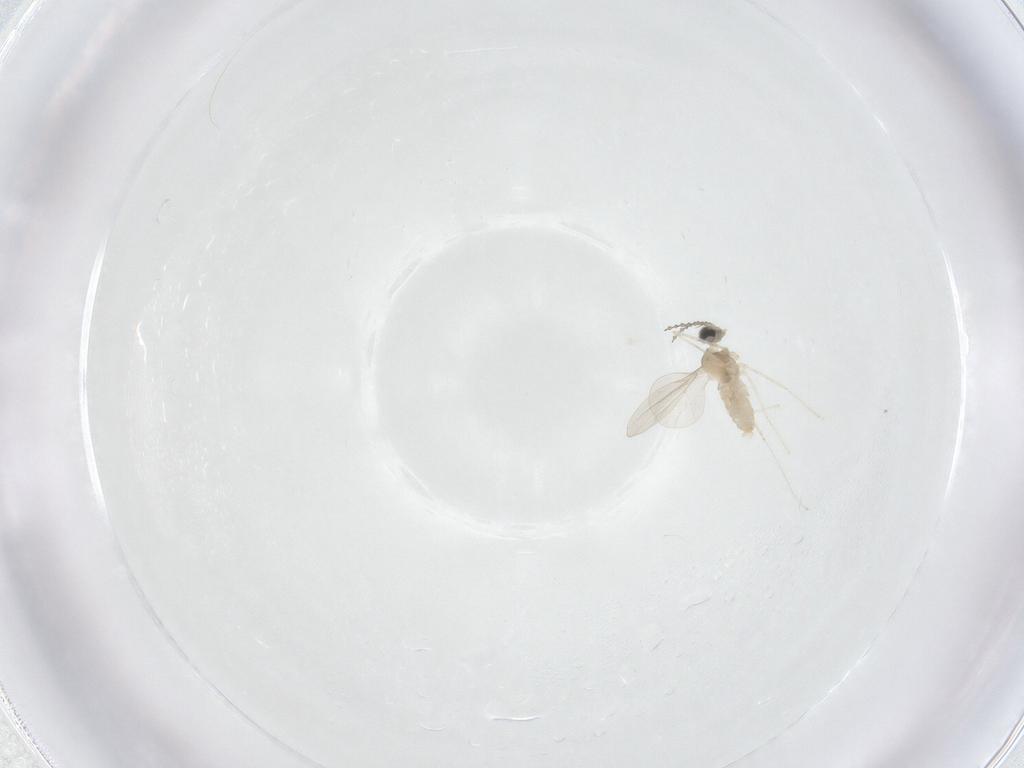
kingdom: Animalia
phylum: Arthropoda
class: Insecta
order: Diptera
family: Cecidomyiidae
